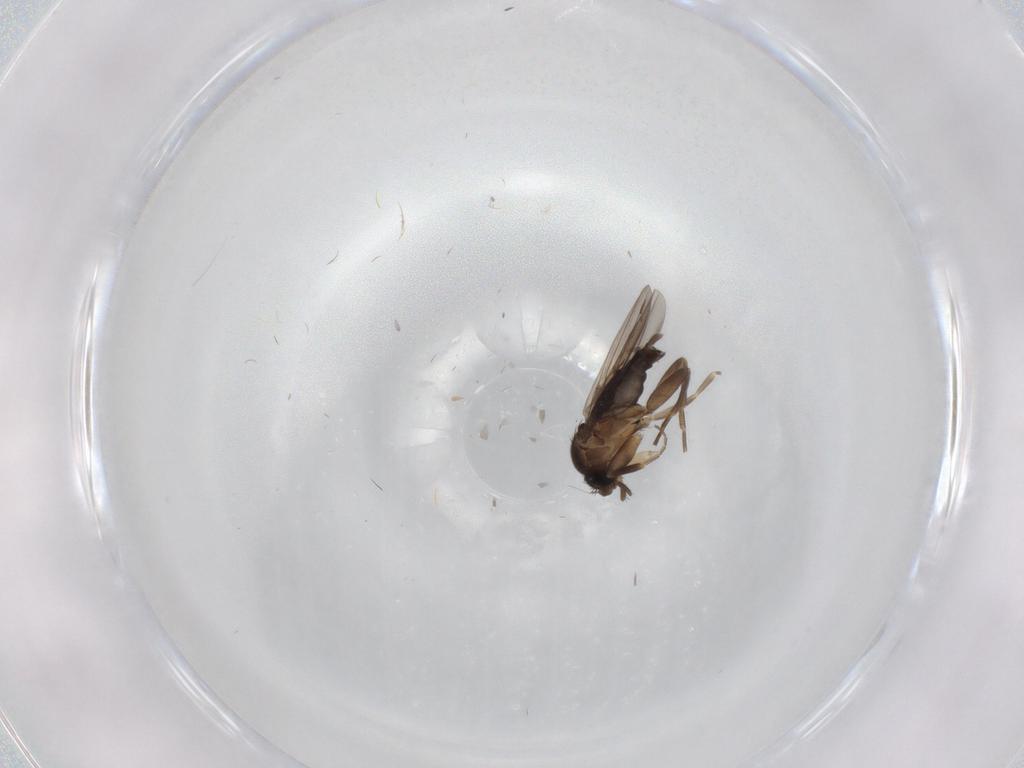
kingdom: Animalia
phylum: Arthropoda
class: Insecta
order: Diptera
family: Phoridae
